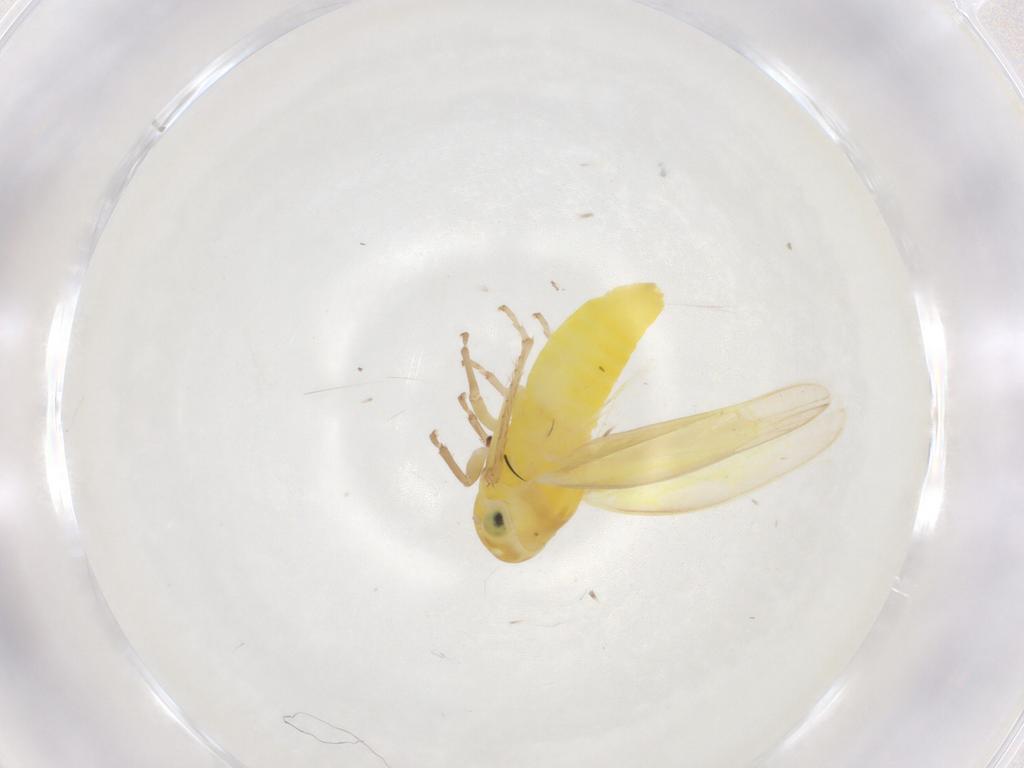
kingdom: Animalia
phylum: Arthropoda
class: Insecta
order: Hemiptera
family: Cicadellidae
